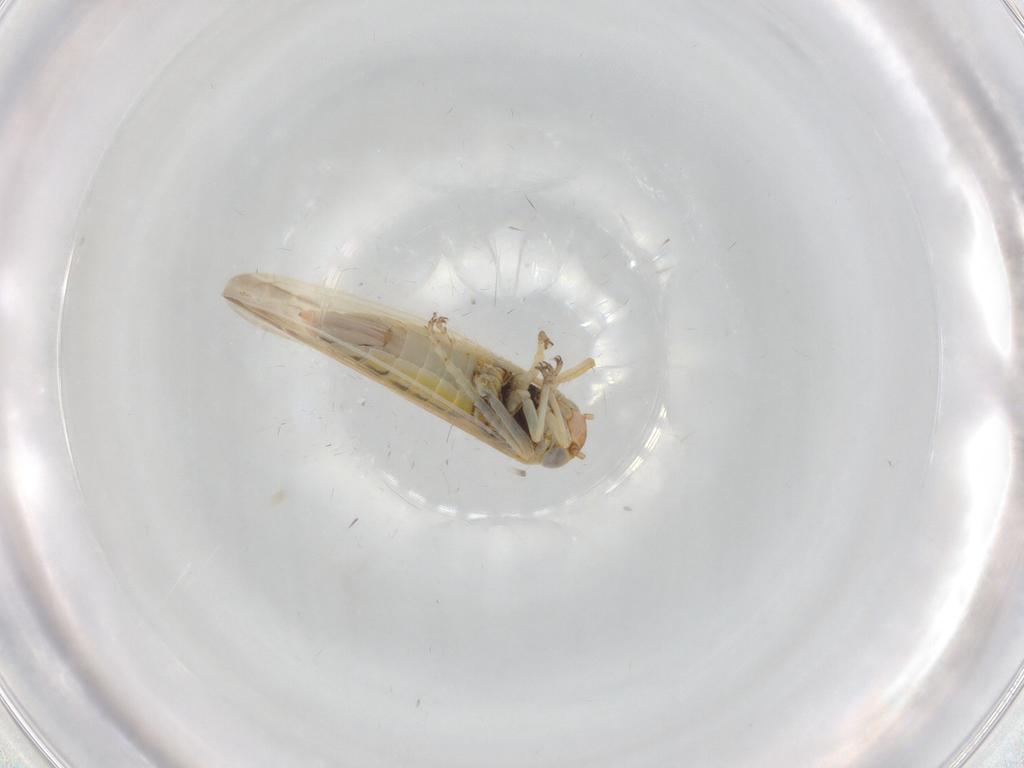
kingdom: Animalia
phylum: Arthropoda
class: Insecta
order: Hemiptera
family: Cicadellidae
